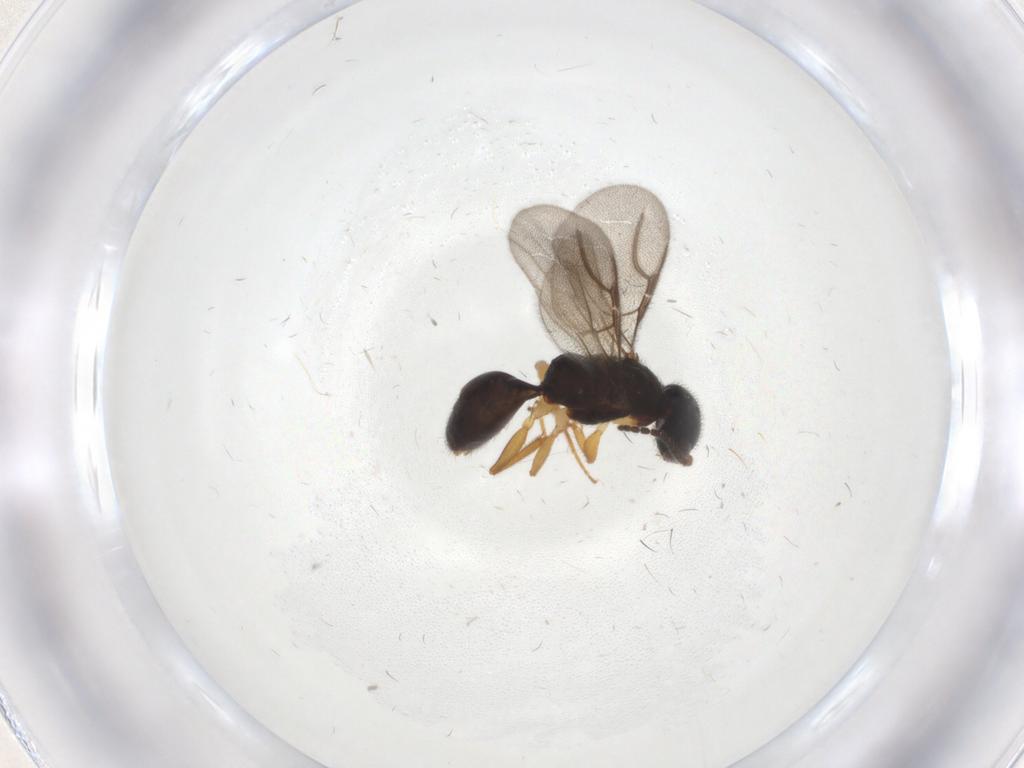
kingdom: Animalia
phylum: Arthropoda
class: Insecta
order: Hymenoptera
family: Bethylidae
